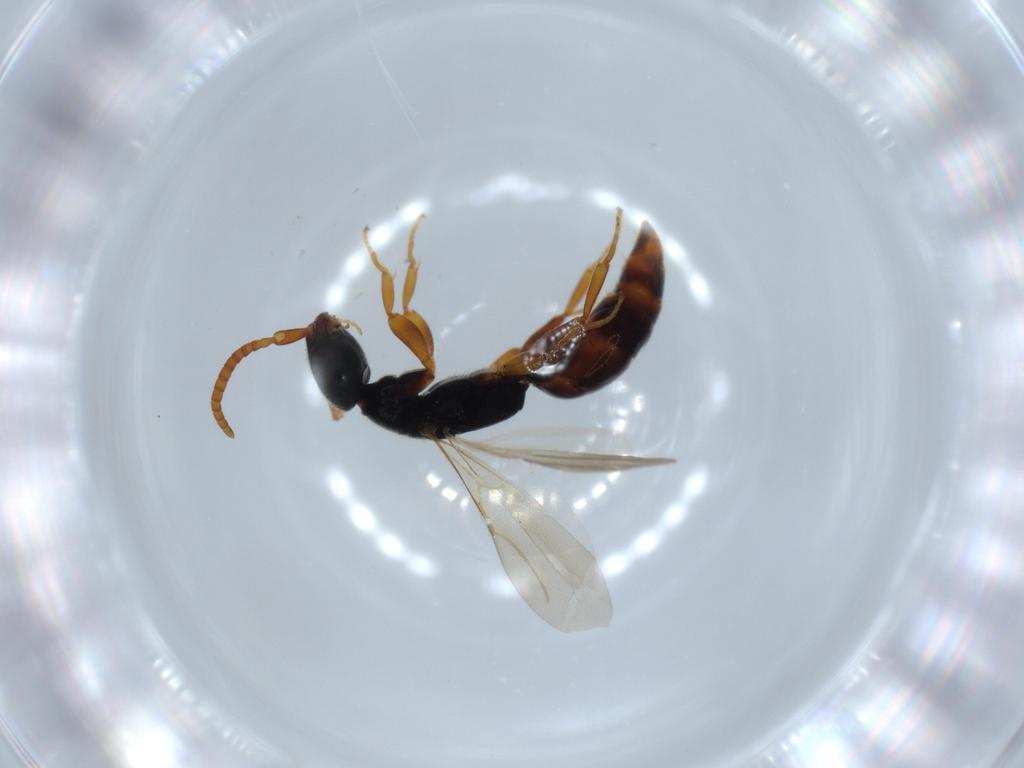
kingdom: Animalia
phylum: Arthropoda
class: Insecta
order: Hymenoptera
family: Bethylidae
